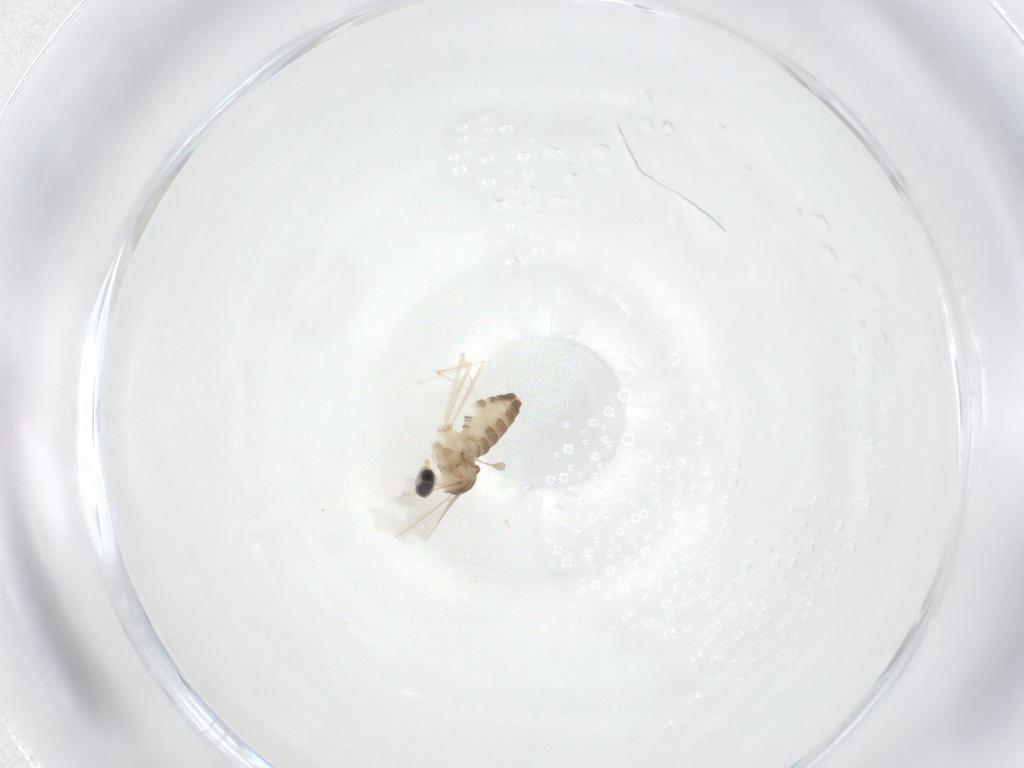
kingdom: Animalia
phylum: Arthropoda
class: Insecta
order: Diptera
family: Cecidomyiidae
